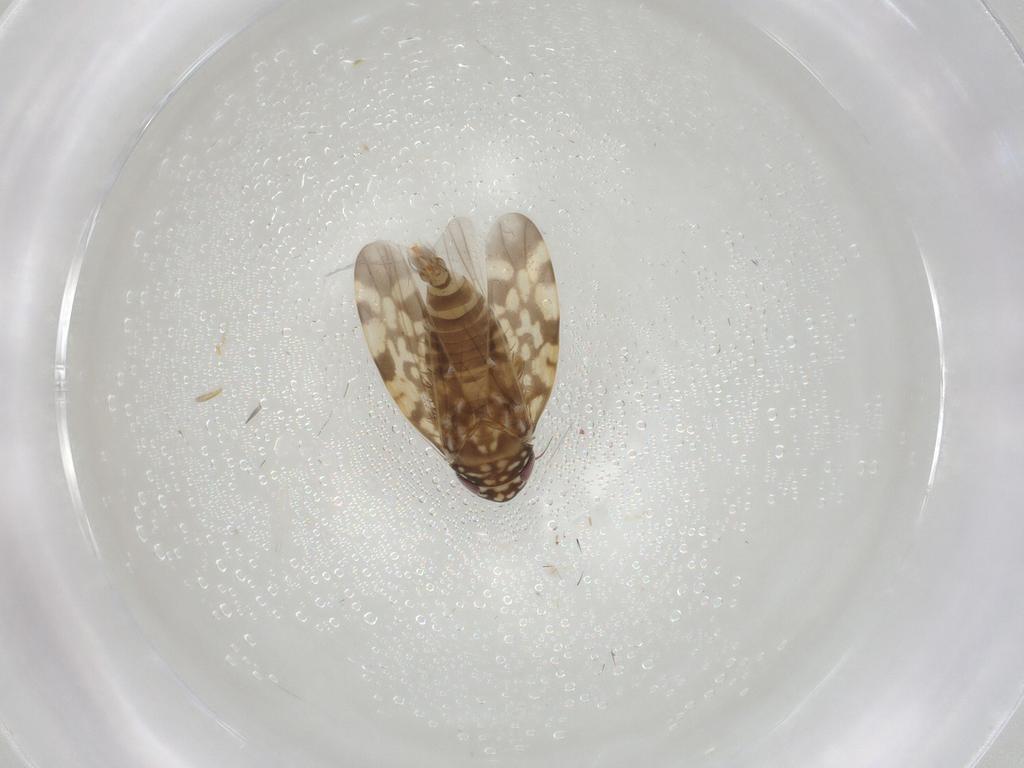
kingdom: Animalia
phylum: Arthropoda
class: Insecta
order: Hemiptera
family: Cicadellidae
